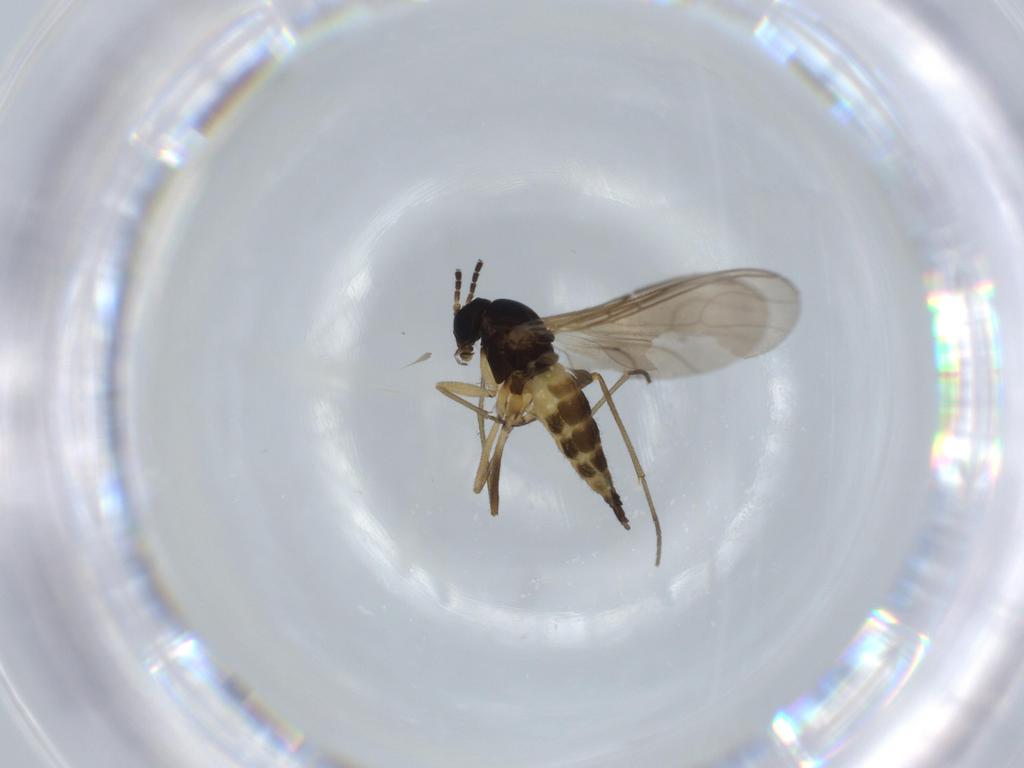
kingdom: Animalia
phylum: Arthropoda
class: Insecta
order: Diptera
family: Sciaridae
